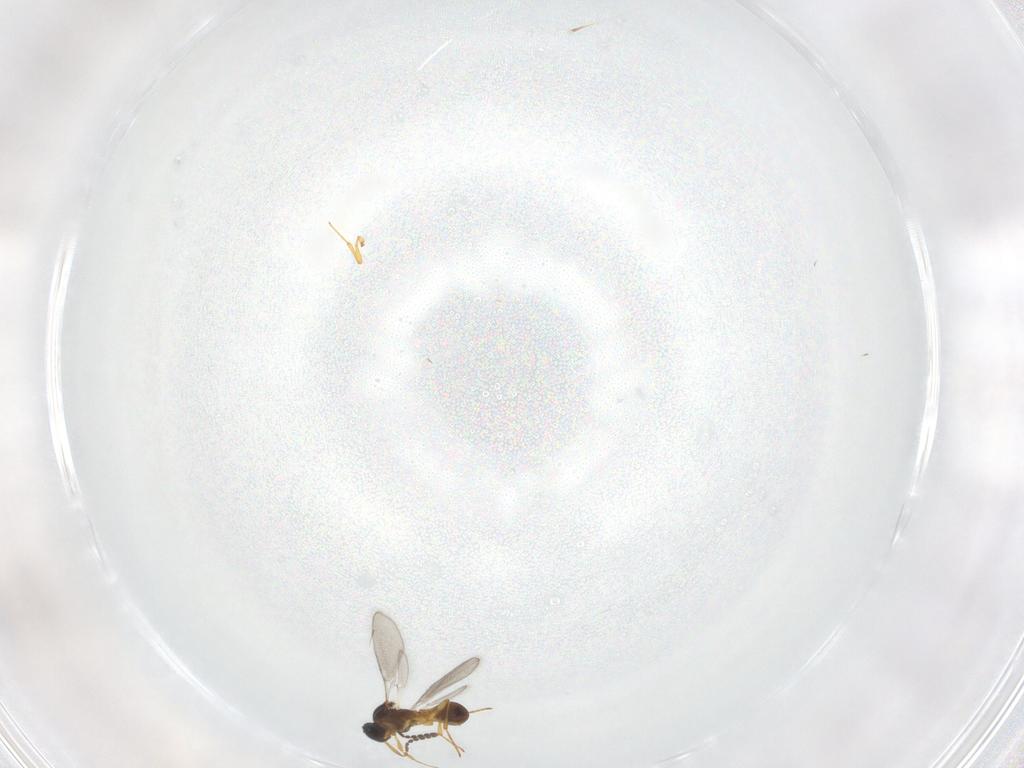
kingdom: Animalia
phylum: Arthropoda
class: Insecta
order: Hymenoptera
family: Platygastridae
